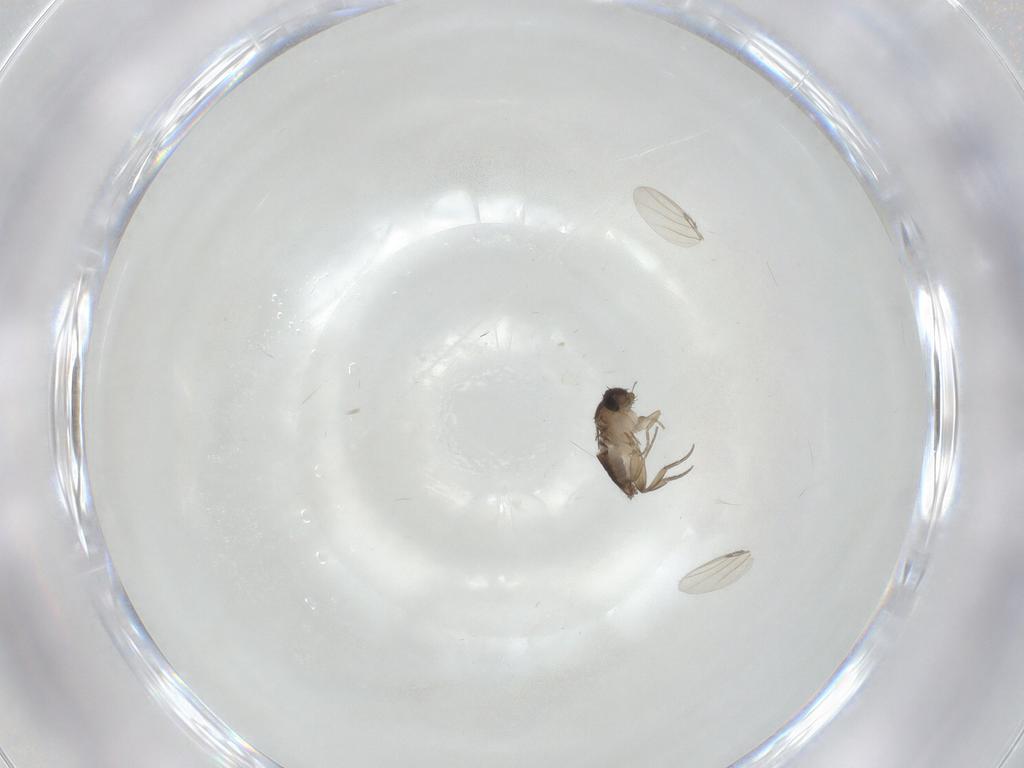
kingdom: Animalia
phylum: Arthropoda
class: Insecta
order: Diptera
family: Phoridae
